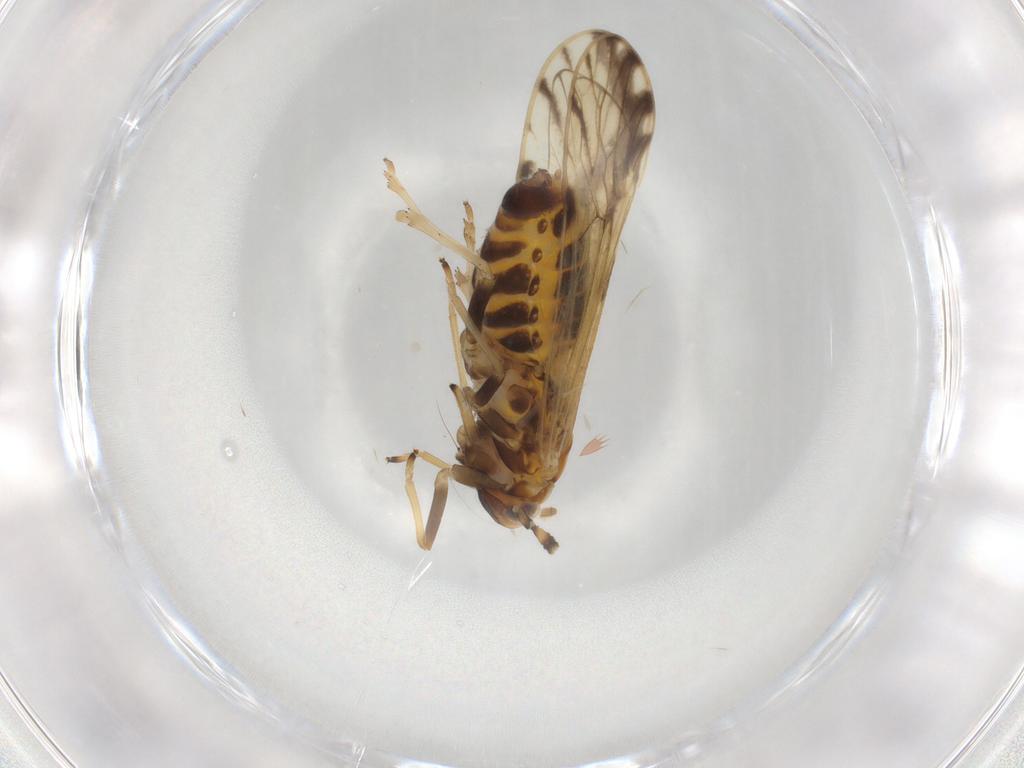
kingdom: Animalia
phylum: Arthropoda
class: Insecta
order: Hemiptera
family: Delphacidae
